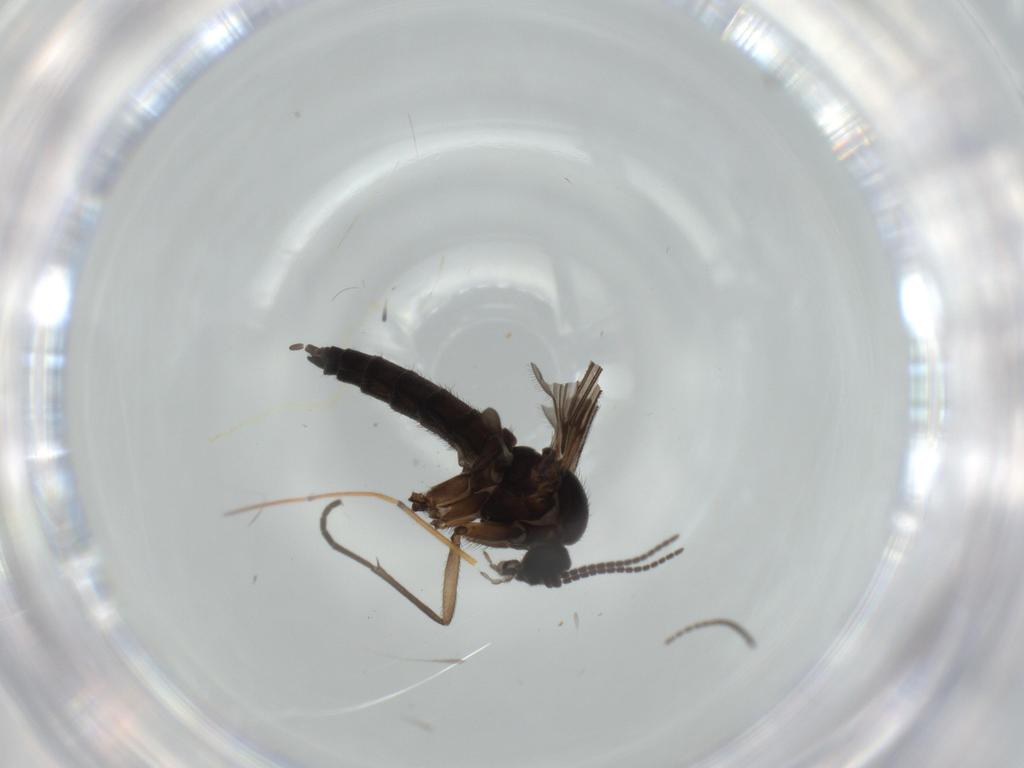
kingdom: Animalia
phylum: Arthropoda
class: Insecta
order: Diptera
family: Sciaridae
